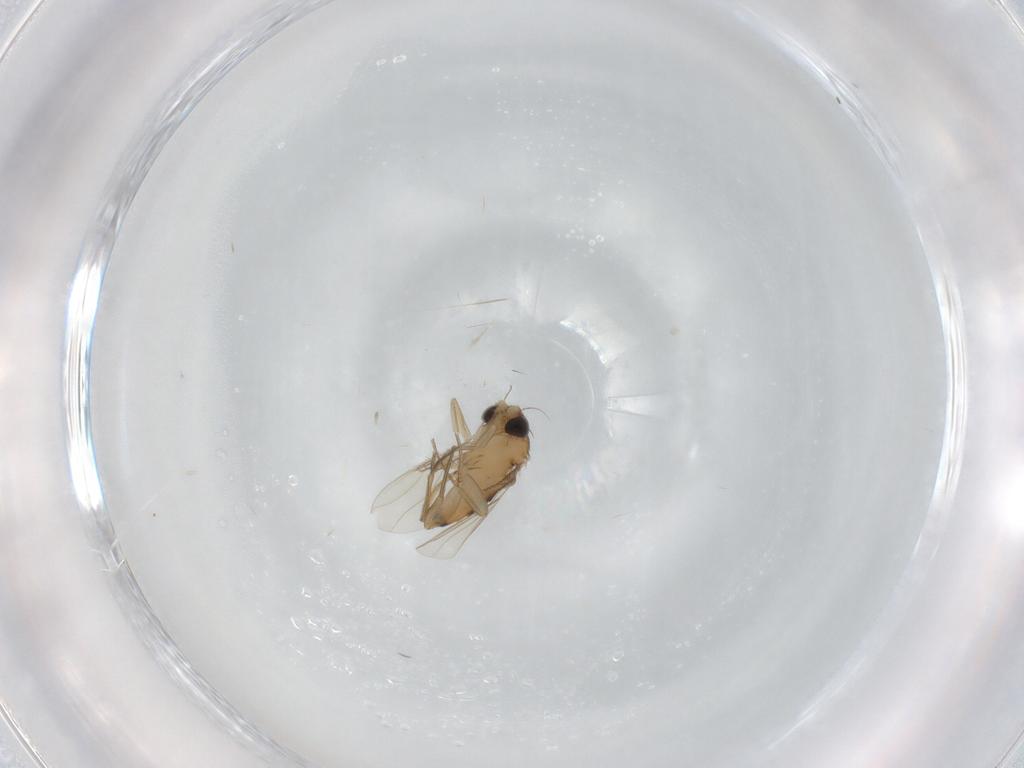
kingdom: Animalia
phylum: Arthropoda
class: Insecta
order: Diptera
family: Phoridae
